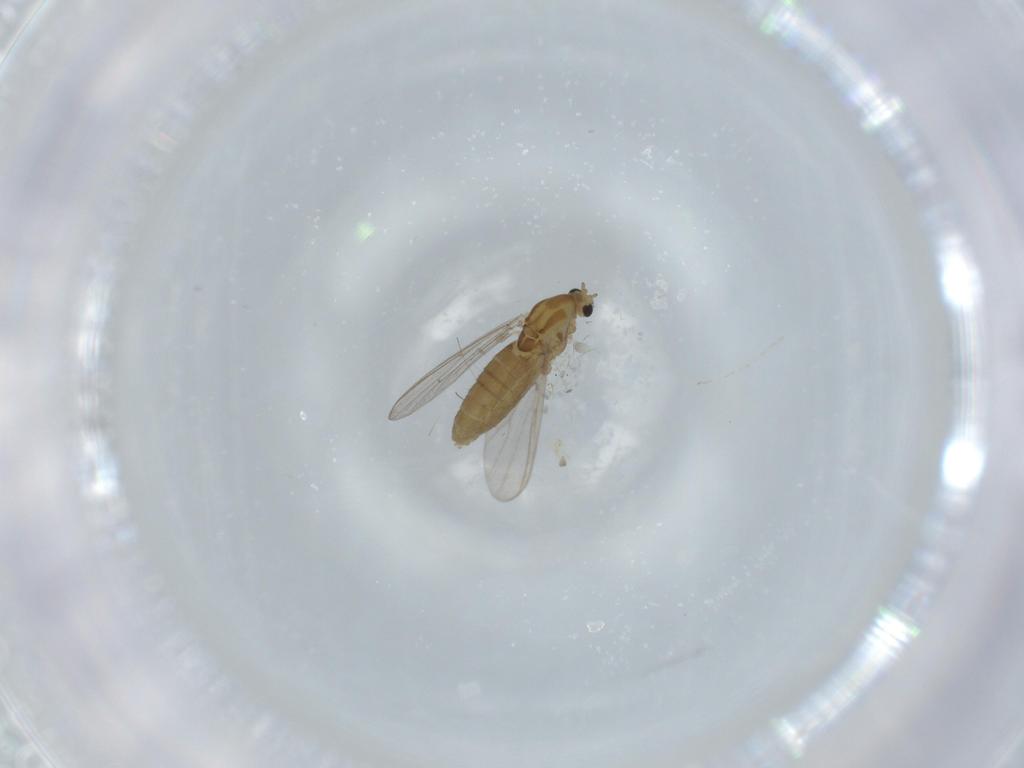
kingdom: Animalia
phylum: Arthropoda
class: Insecta
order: Diptera
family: Chironomidae
